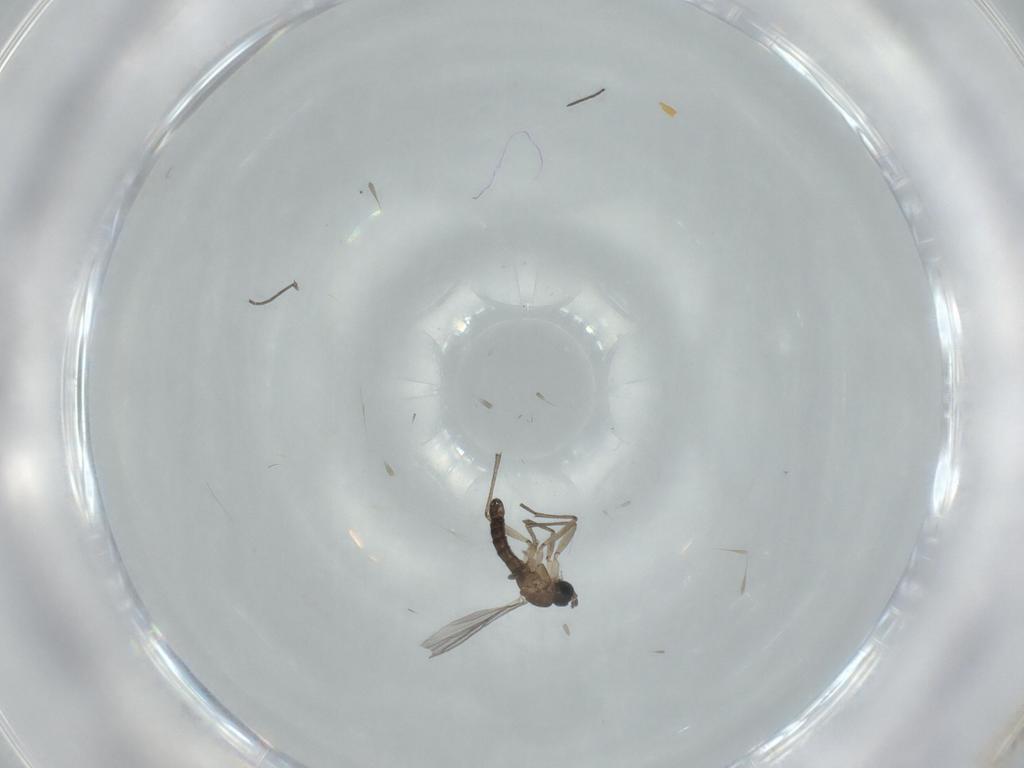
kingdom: Animalia
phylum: Arthropoda
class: Insecta
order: Diptera
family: Sciaridae
